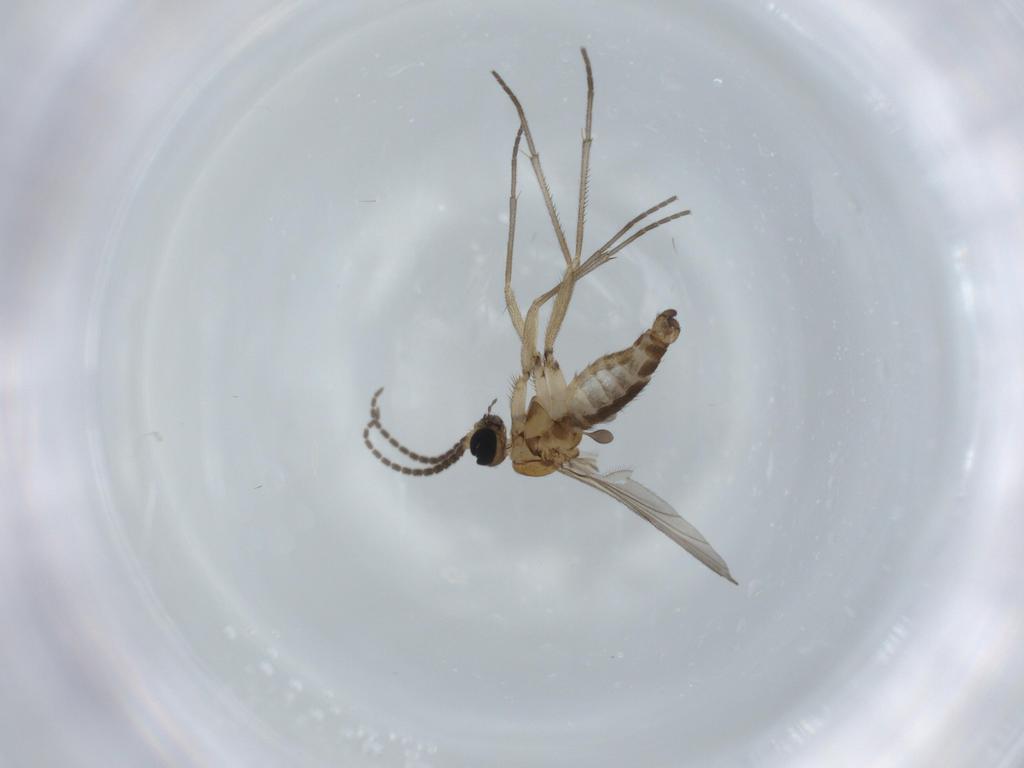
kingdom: Animalia
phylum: Arthropoda
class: Insecta
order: Diptera
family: Sciaridae
